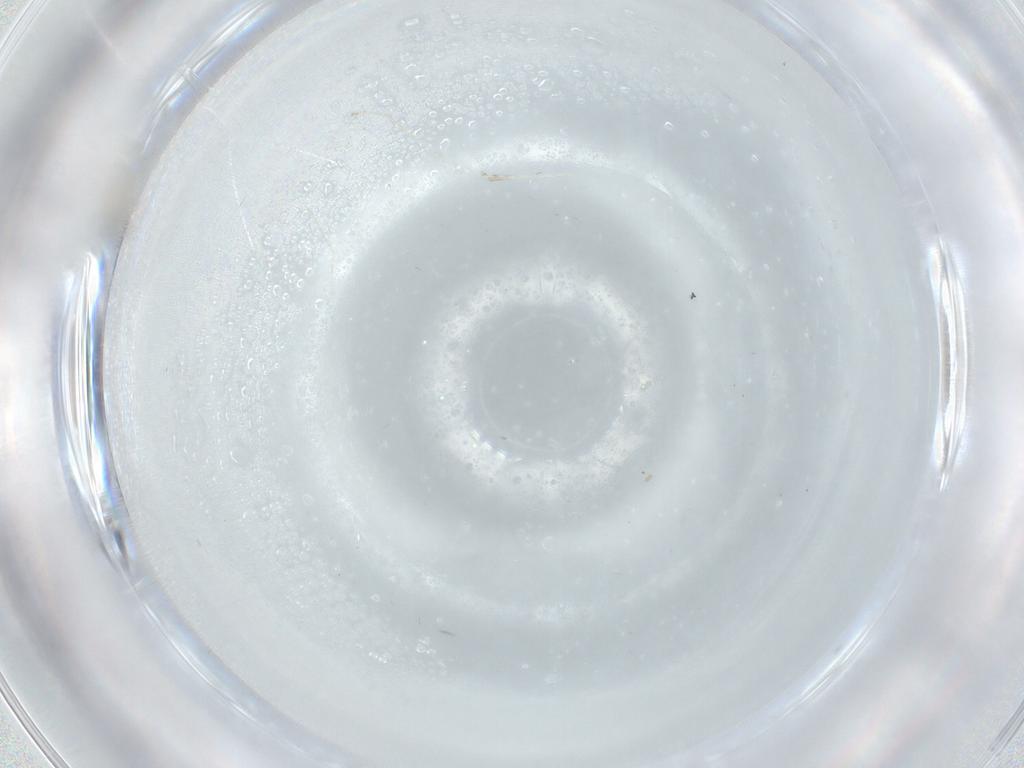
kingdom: Animalia
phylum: Arthropoda
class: Insecta
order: Diptera
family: Cecidomyiidae
